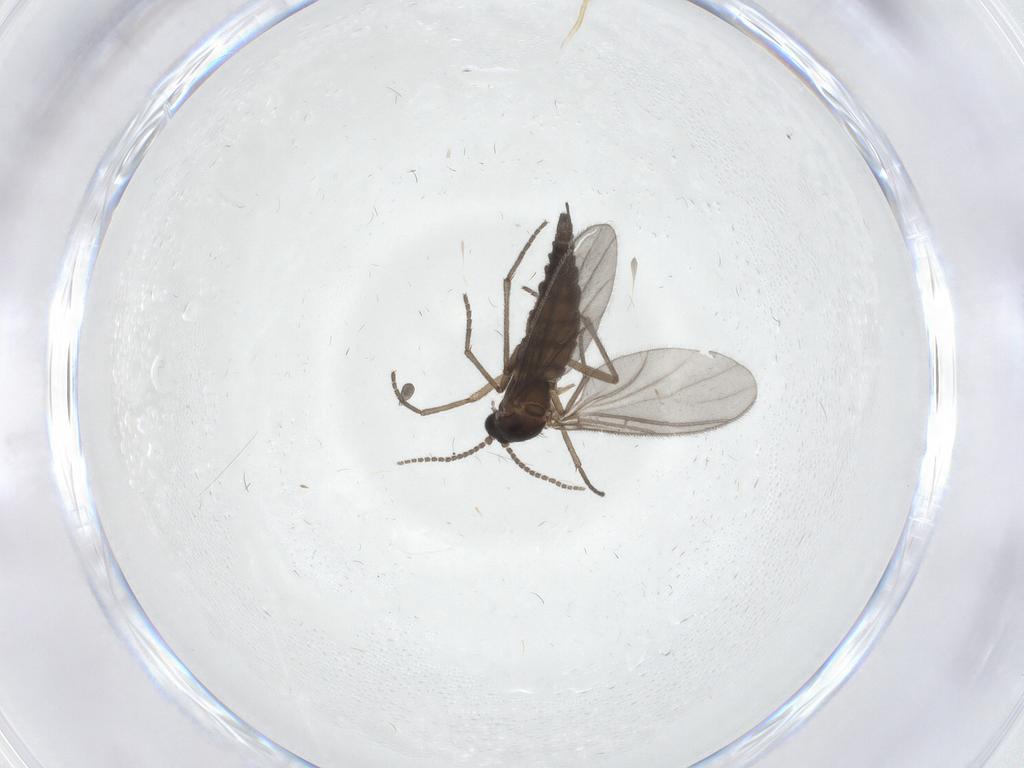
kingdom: Animalia
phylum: Arthropoda
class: Insecta
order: Diptera
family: Sciaridae
